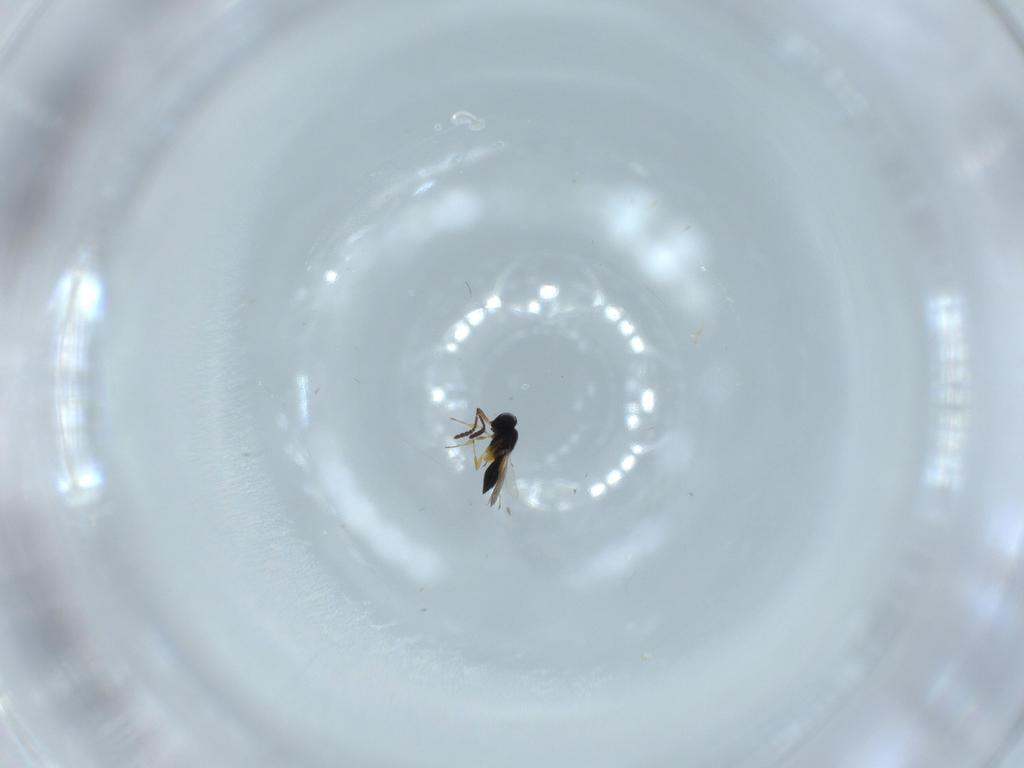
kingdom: Animalia
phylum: Arthropoda
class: Insecta
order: Hymenoptera
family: Scelionidae
